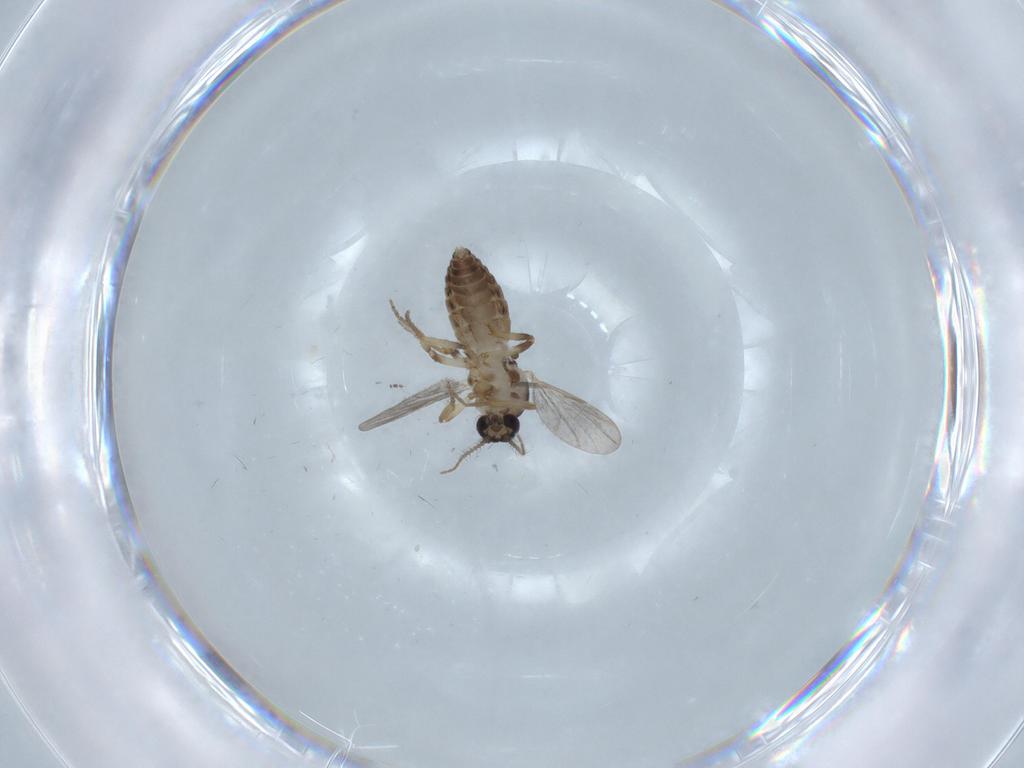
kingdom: Animalia
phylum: Arthropoda
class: Insecta
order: Diptera
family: Ceratopogonidae
